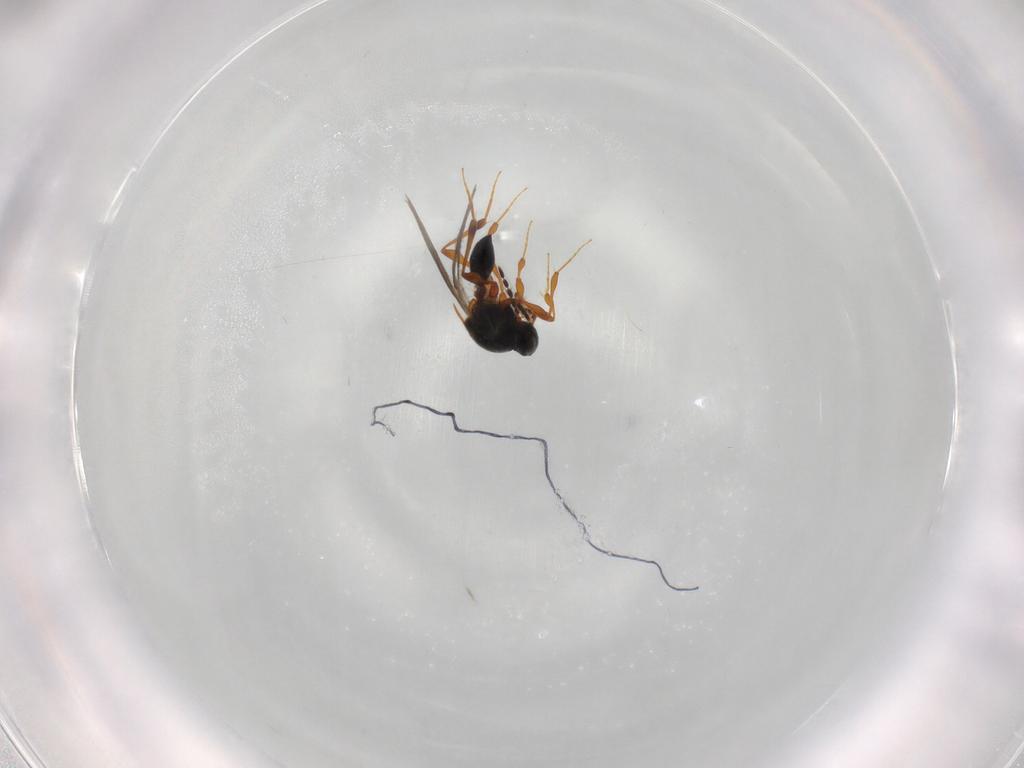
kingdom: Animalia
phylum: Arthropoda
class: Insecta
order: Hymenoptera
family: Platygastridae
